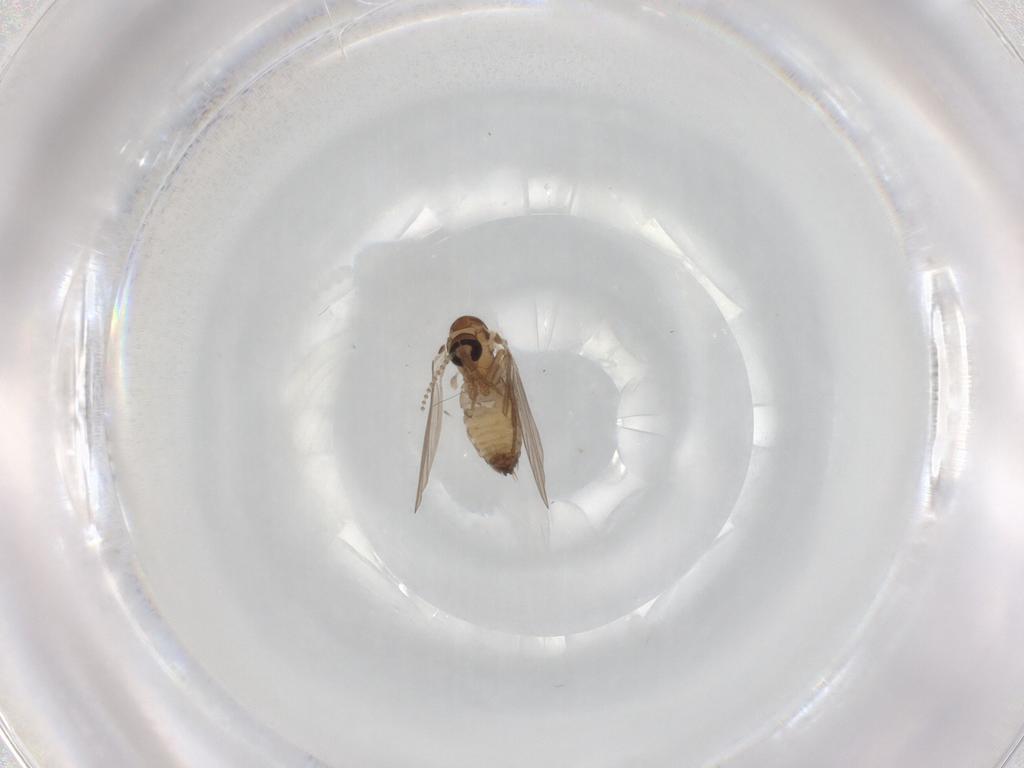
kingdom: Animalia
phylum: Arthropoda
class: Insecta
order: Diptera
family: Psychodidae
